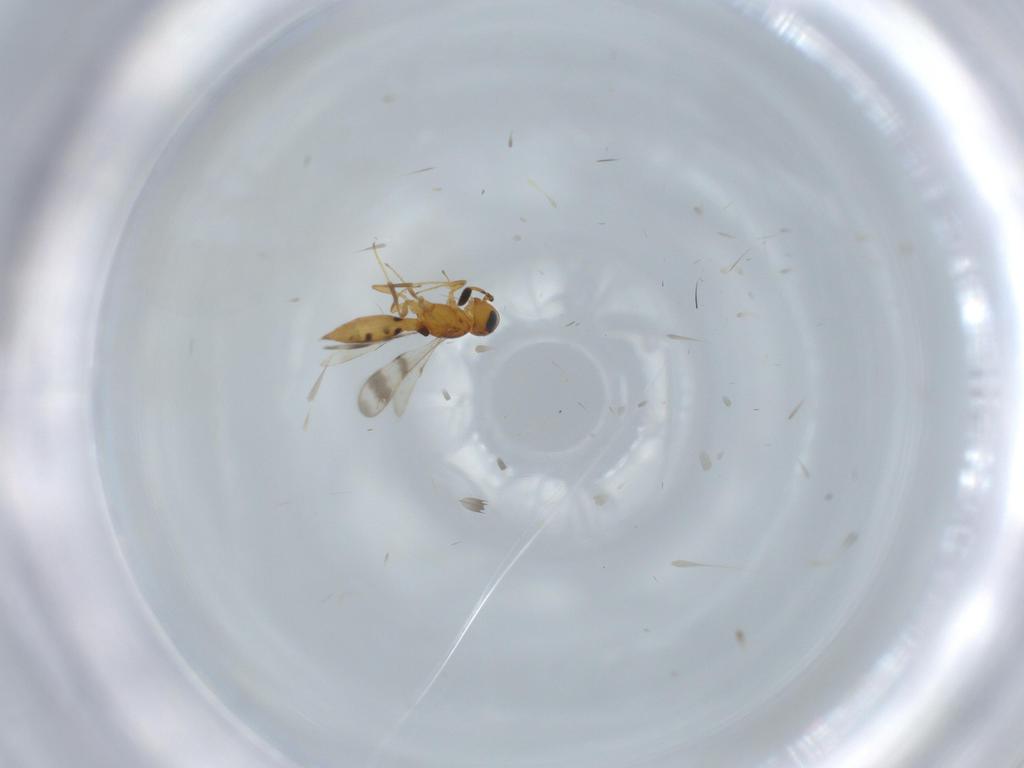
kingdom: Animalia
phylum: Arthropoda
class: Insecta
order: Hymenoptera
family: Scelionidae
